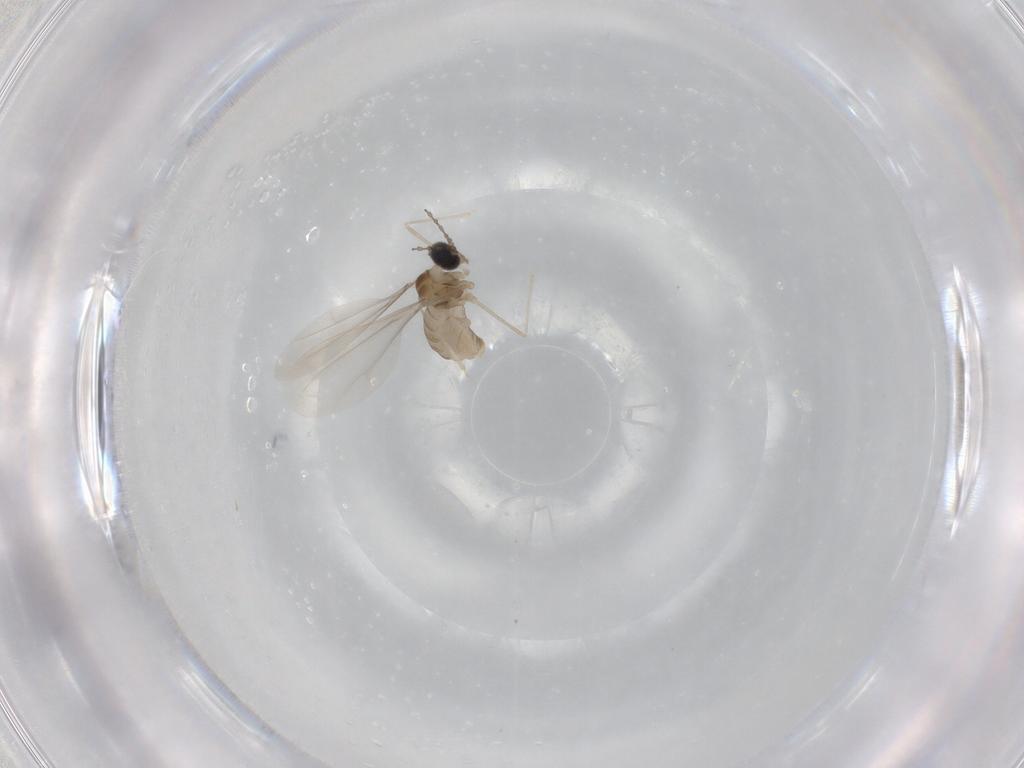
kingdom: Animalia
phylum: Arthropoda
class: Insecta
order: Diptera
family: Cecidomyiidae
